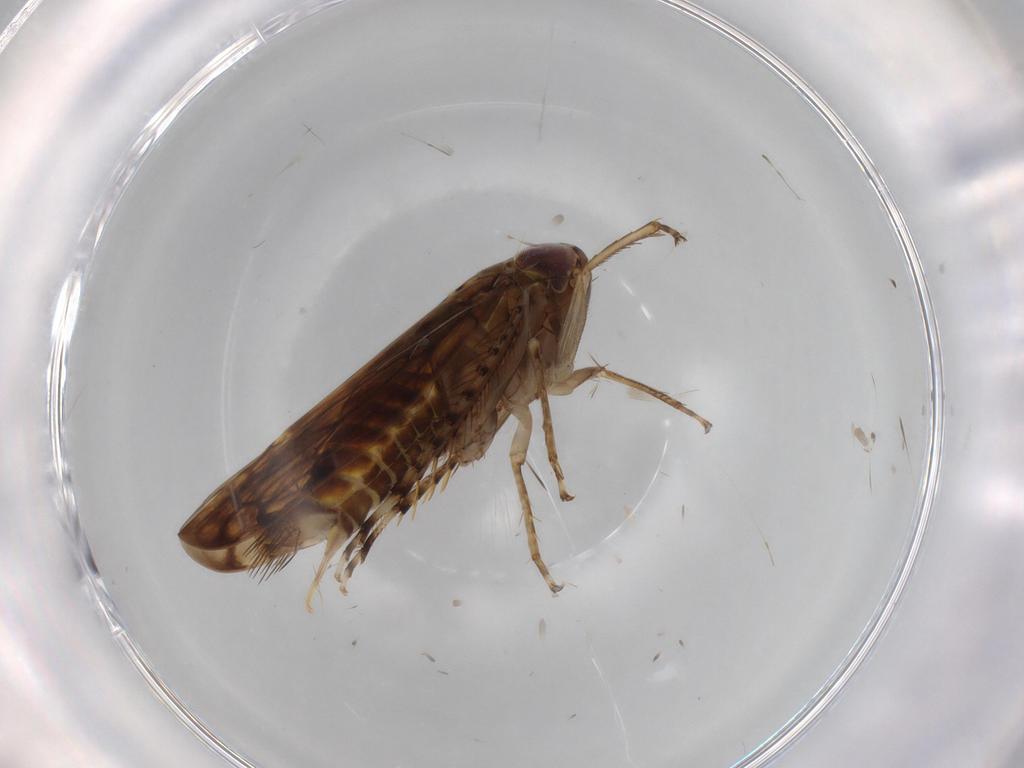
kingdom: Animalia
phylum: Arthropoda
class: Insecta
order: Hemiptera
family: Cicadellidae
